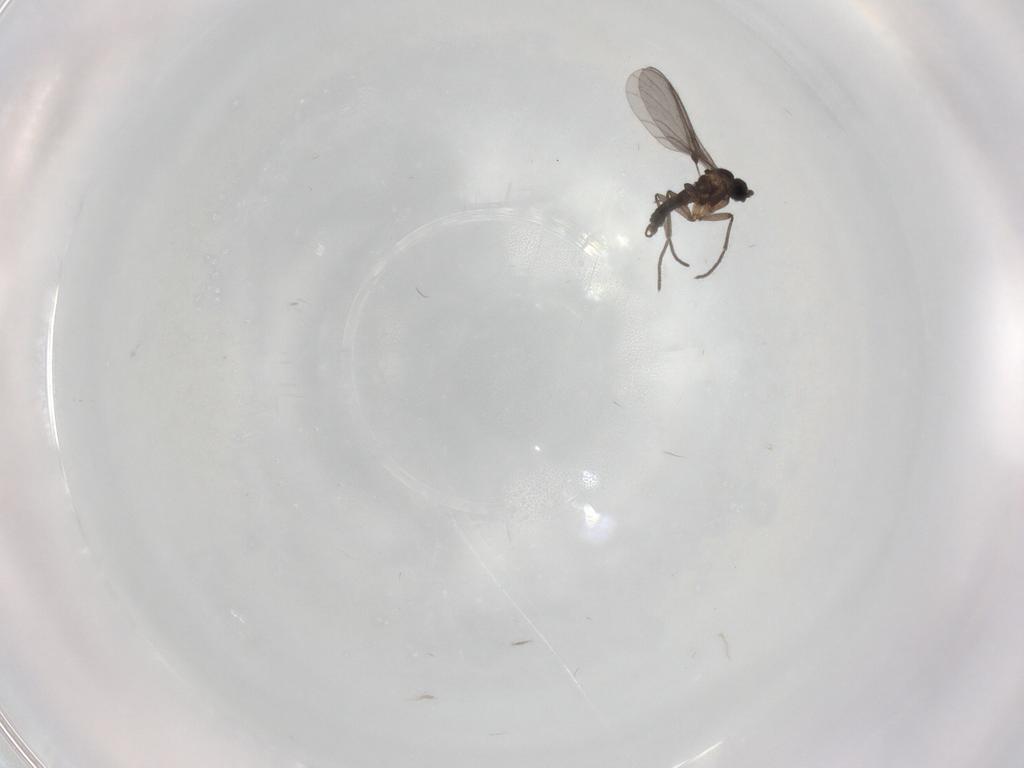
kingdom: Animalia
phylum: Arthropoda
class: Insecta
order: Diptera
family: Sciaridae
